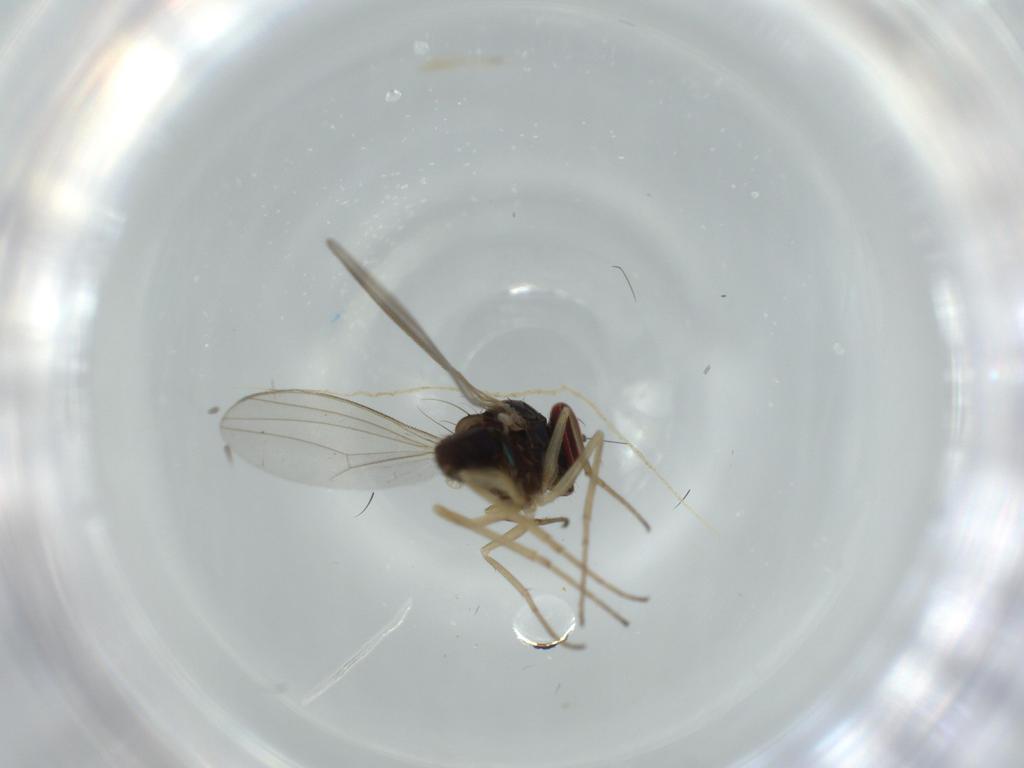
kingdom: Animalia
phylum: Arthropoda
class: Insecta
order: Diptera
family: Dolichopodidae
